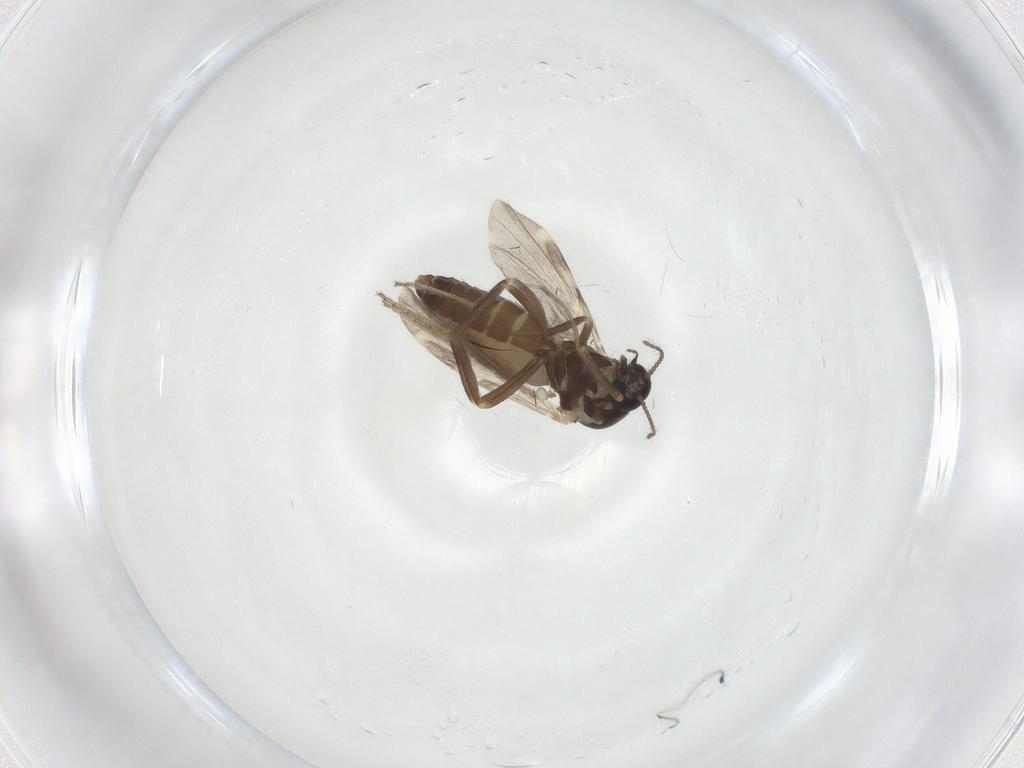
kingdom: Animalia
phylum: Arthropoda
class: Insecta
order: Diptera
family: Ceratopogonidae
